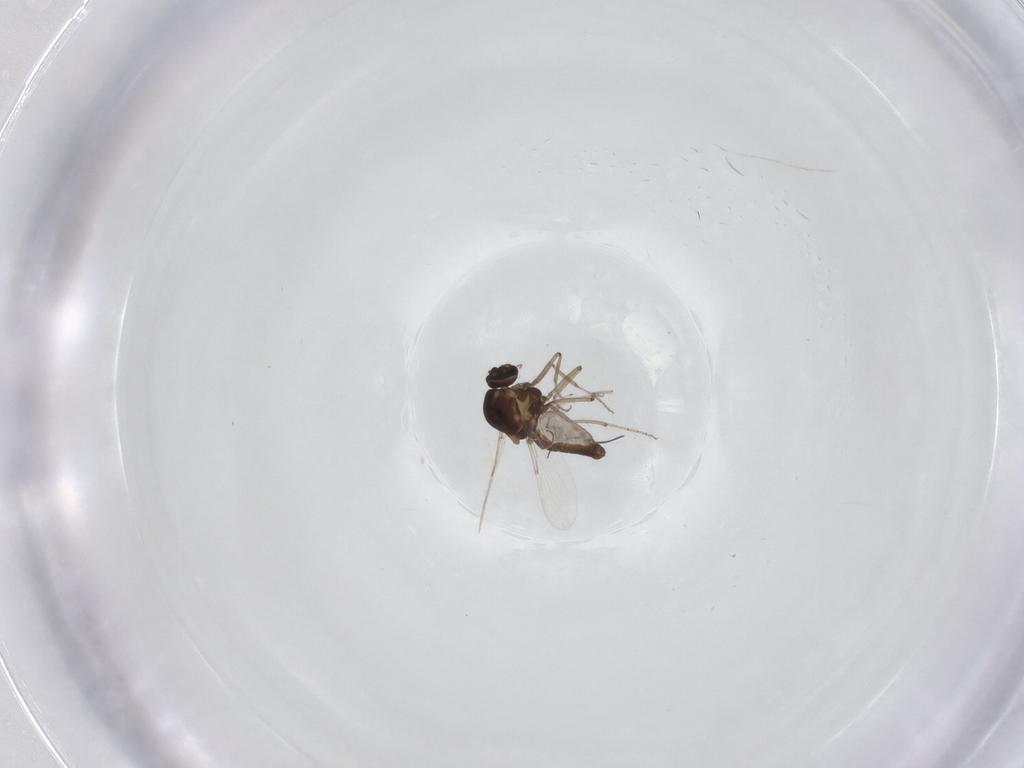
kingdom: Animalia
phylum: Arthropoda
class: Insecta
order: Diptera
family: Ceratopogonidae
